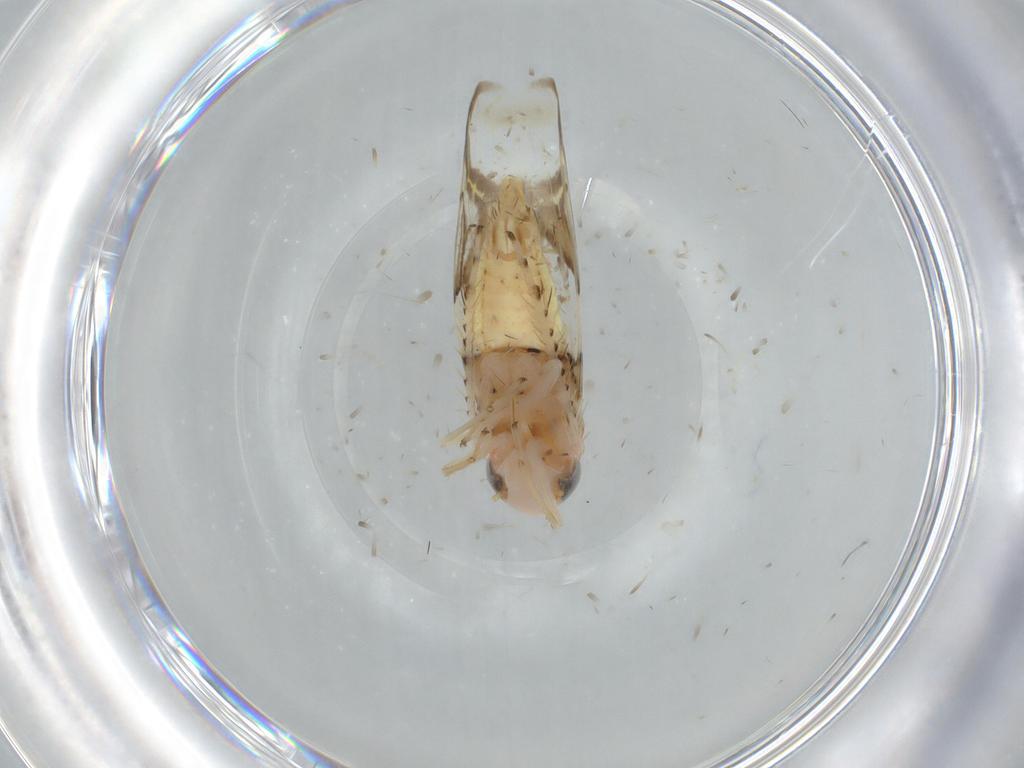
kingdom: Animalia
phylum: Arthropoda
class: Insecta
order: Hemiptera
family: Cicadellidae
